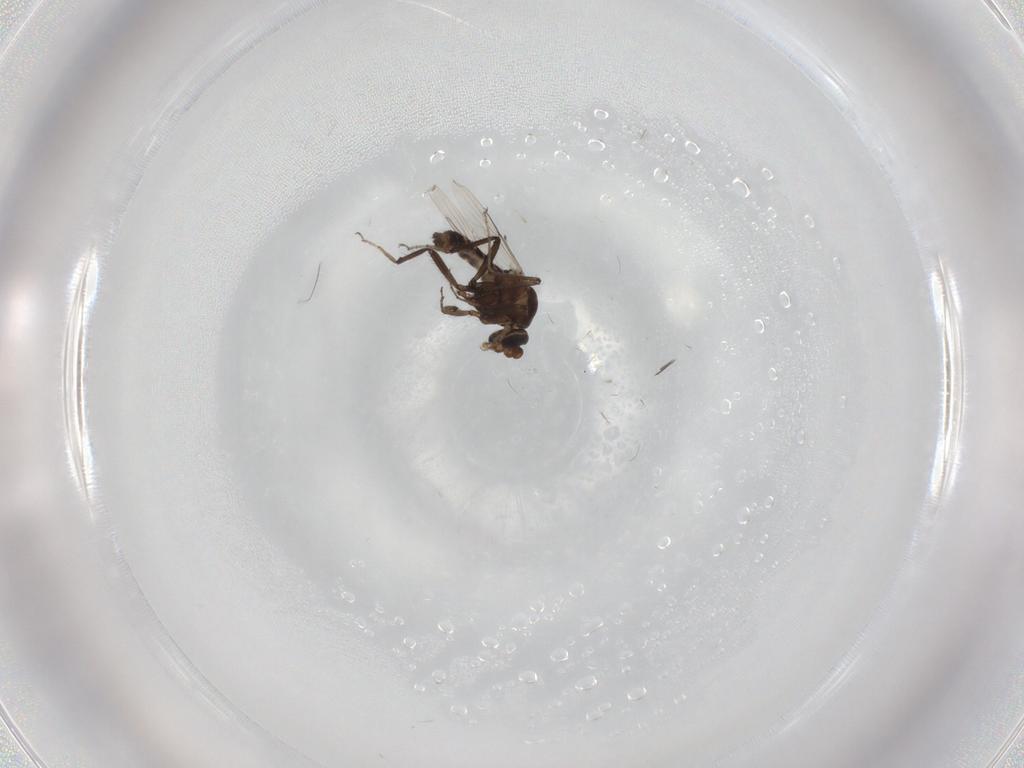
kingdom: Animalia
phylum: Arthropoda
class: Insecta
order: Diptera
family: Ceratopogonidae
